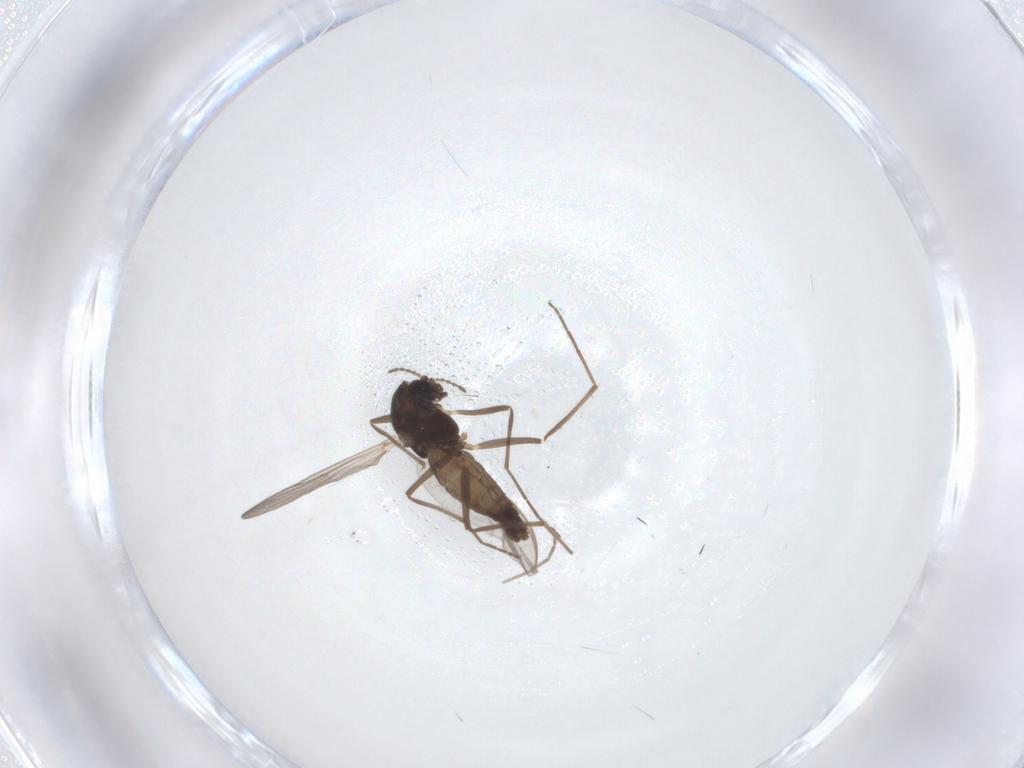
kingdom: Animalia
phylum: Arthropoda
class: Insecta
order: Diptera
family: Chironomidae
